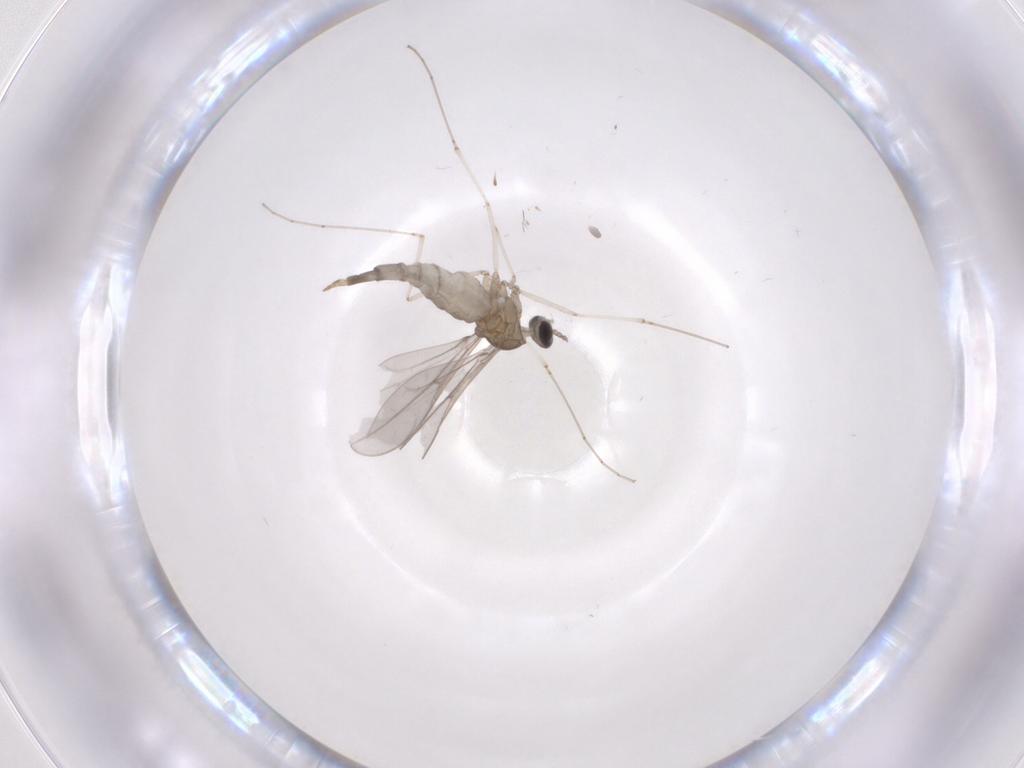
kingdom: Animalia
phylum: Arthropoda
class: Insecta
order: Diptera
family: Cecidomyiidae
